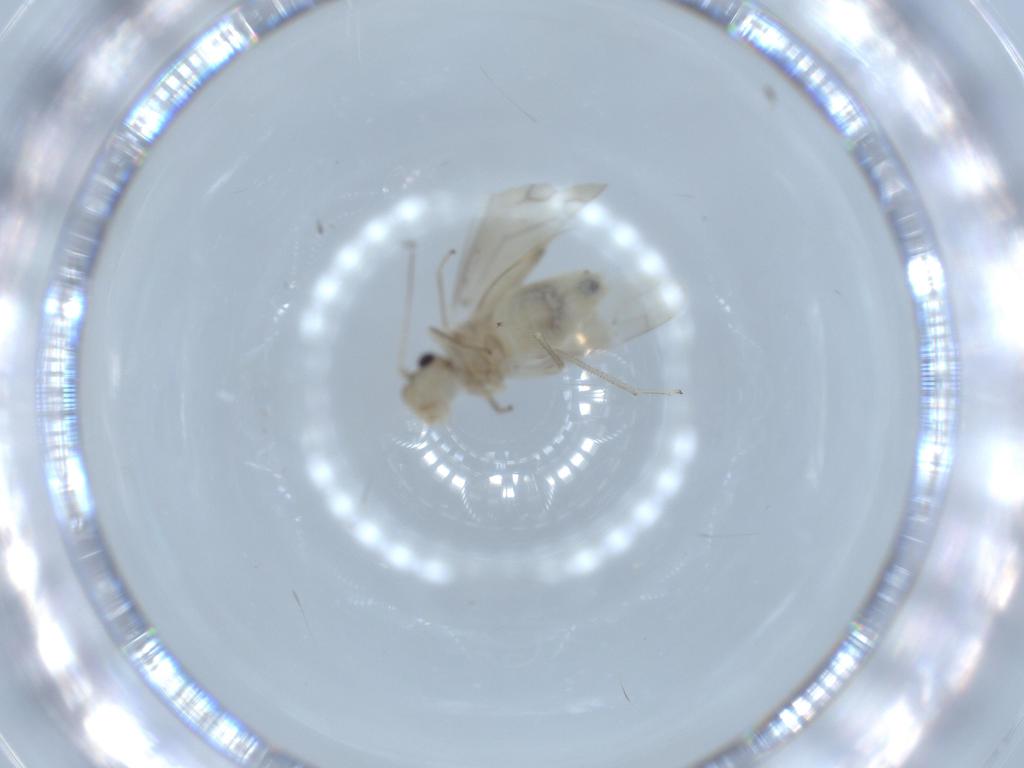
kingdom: Animalia
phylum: Arthropoda
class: Insecta
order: Psocodea
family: Caeciliusidae
